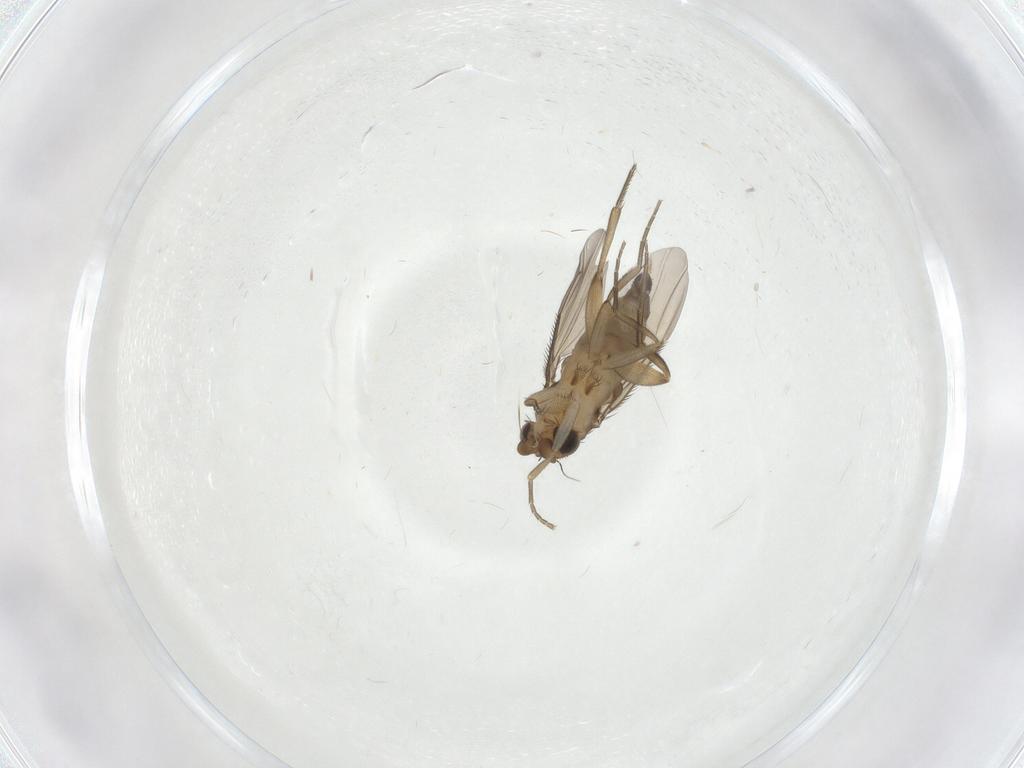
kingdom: Animalia
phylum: Arthropoda
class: Insecta
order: Diptera
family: Phoridae
